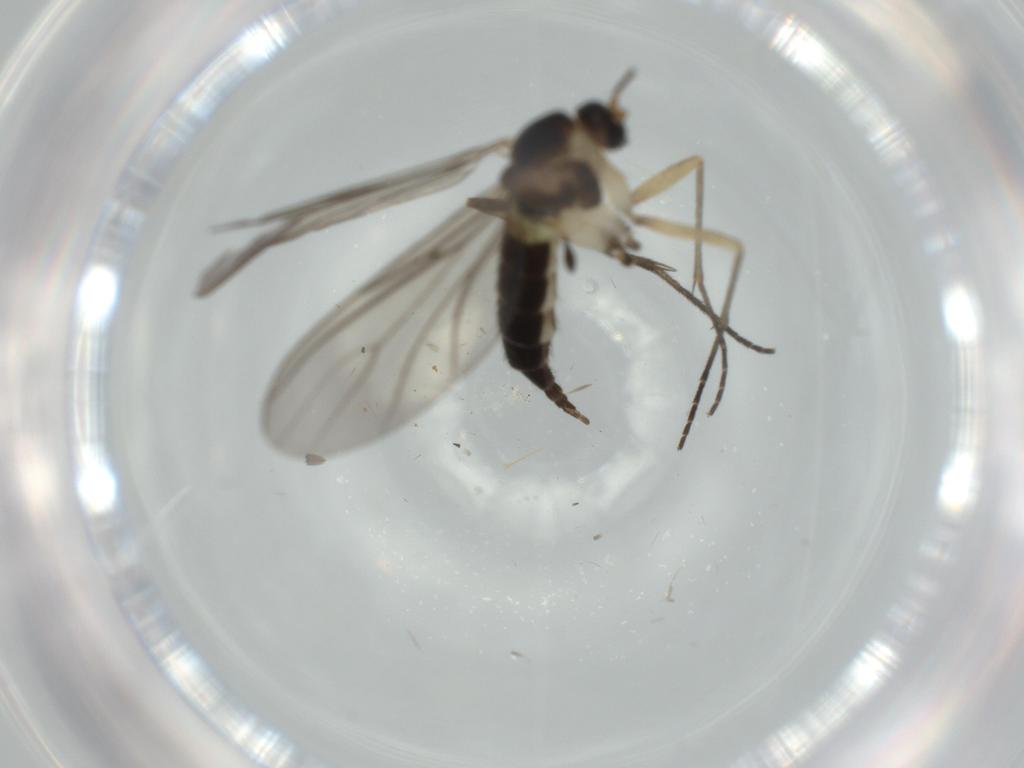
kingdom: Animalia
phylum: Arthropoda
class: Insecta
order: Diptera
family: Sciaridae
